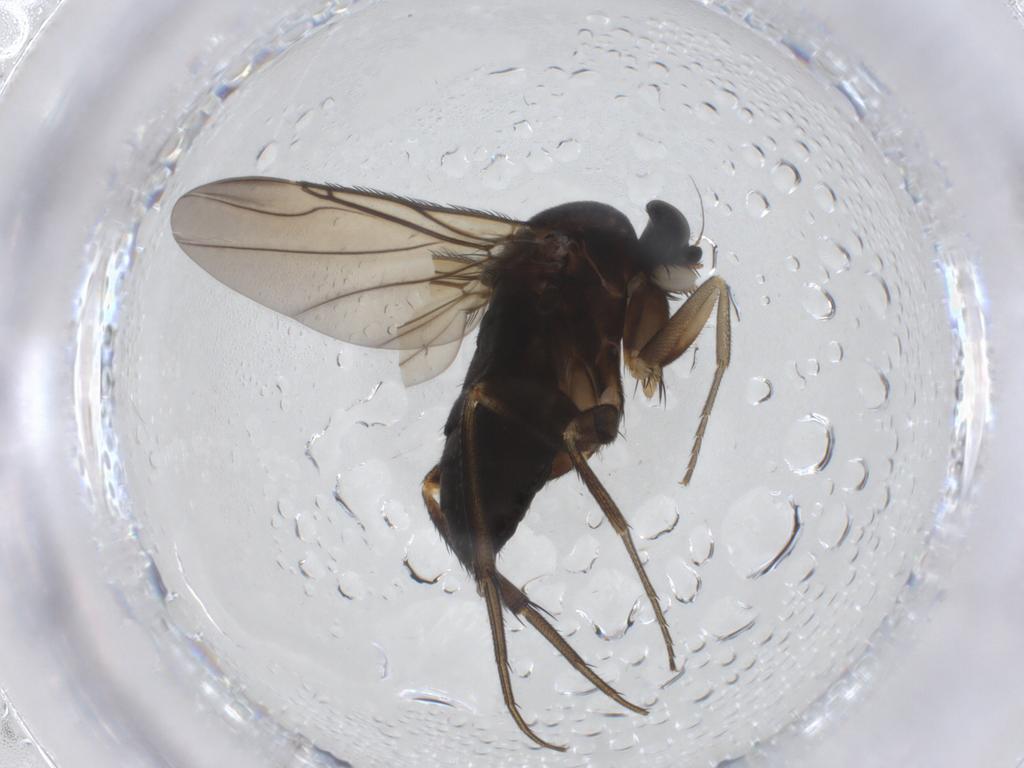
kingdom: Animalia
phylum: Arthropoda
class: Insecta
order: Diptera
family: Phoridae
